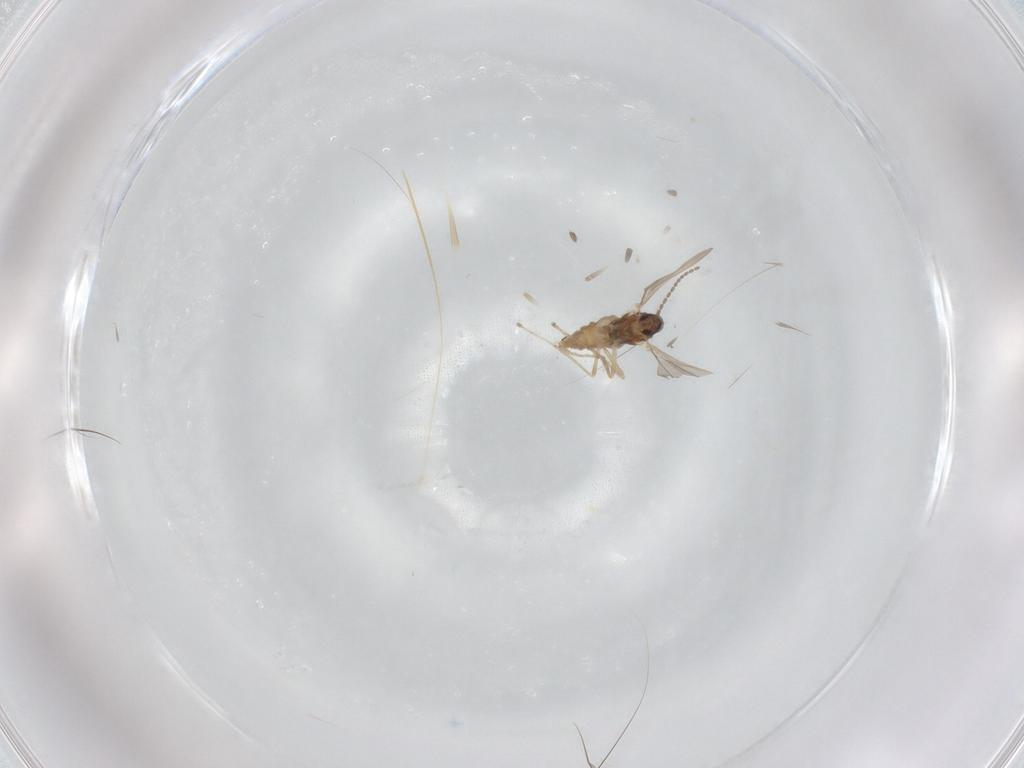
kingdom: Animalia
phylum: Arthropoda
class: Insecta
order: Diptera
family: Cecidomyiidae
